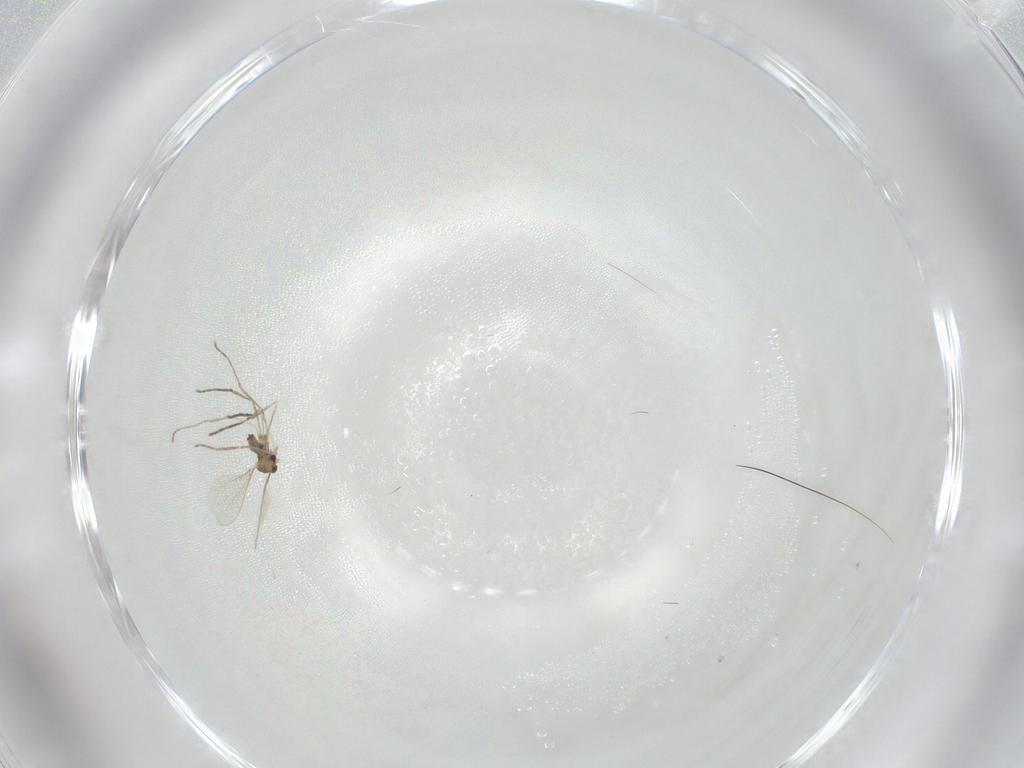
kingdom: Animalia
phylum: Arthropoda
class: Insecta
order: Diptera
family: Cecidomyiidae
